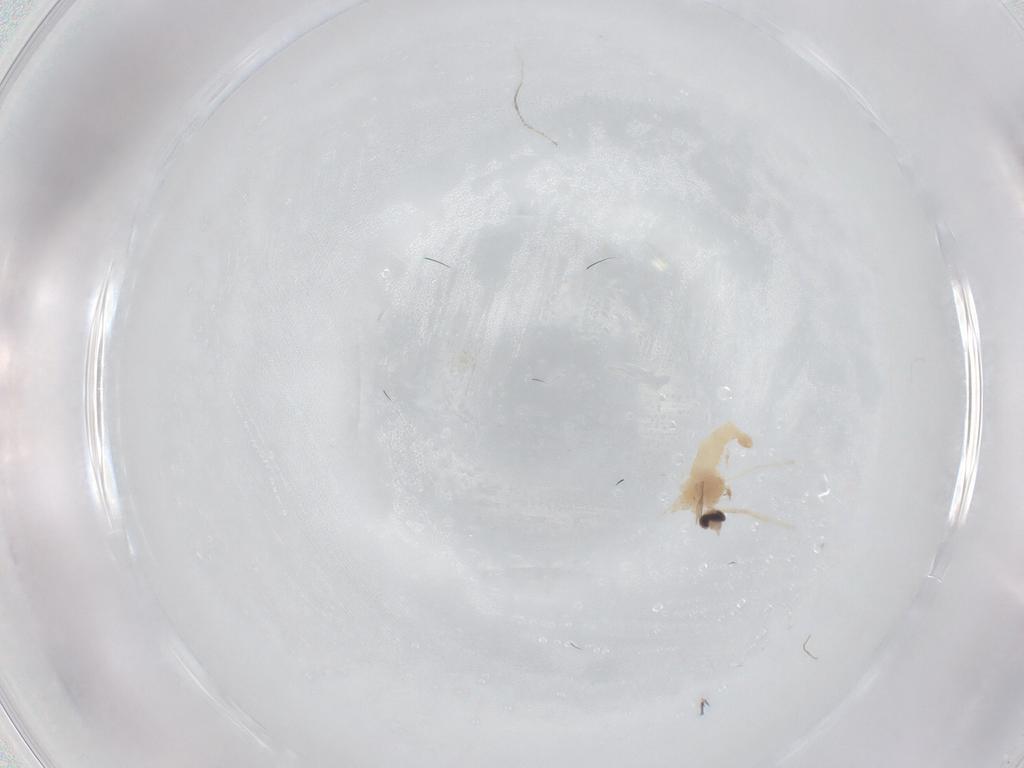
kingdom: Animalia
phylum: Arthropoda
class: Insecta
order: Diptera
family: Cecidomyiidae
